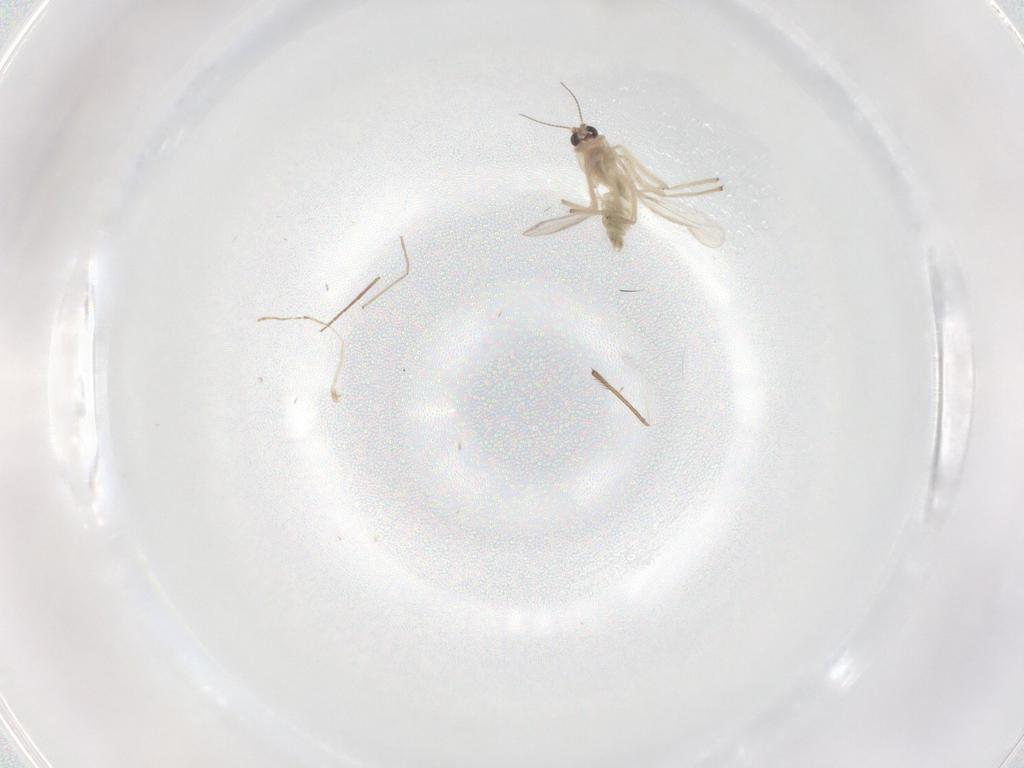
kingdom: Animalia
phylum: Arthropoda
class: Insecta
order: Diptera
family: Chironomidae
